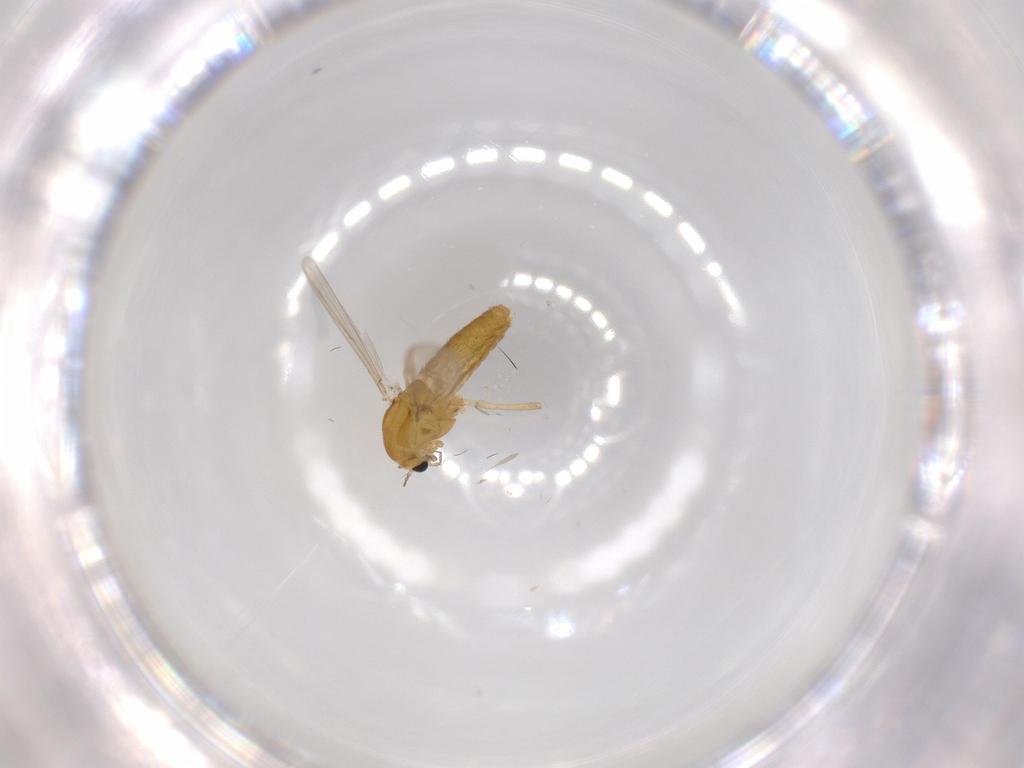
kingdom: Animalia
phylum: Arthropoda
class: Insecta
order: Diptera
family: Chironomidae
